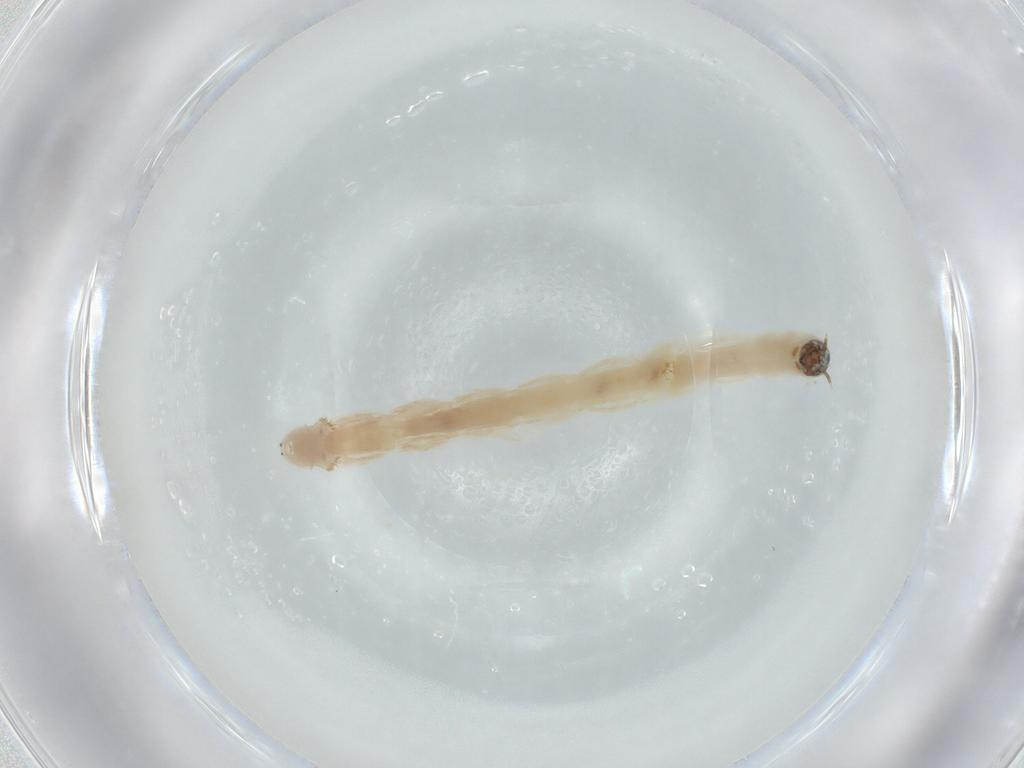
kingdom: Animalia
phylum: Arthropoda
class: Insecta
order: Diptera
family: Chironomidae
